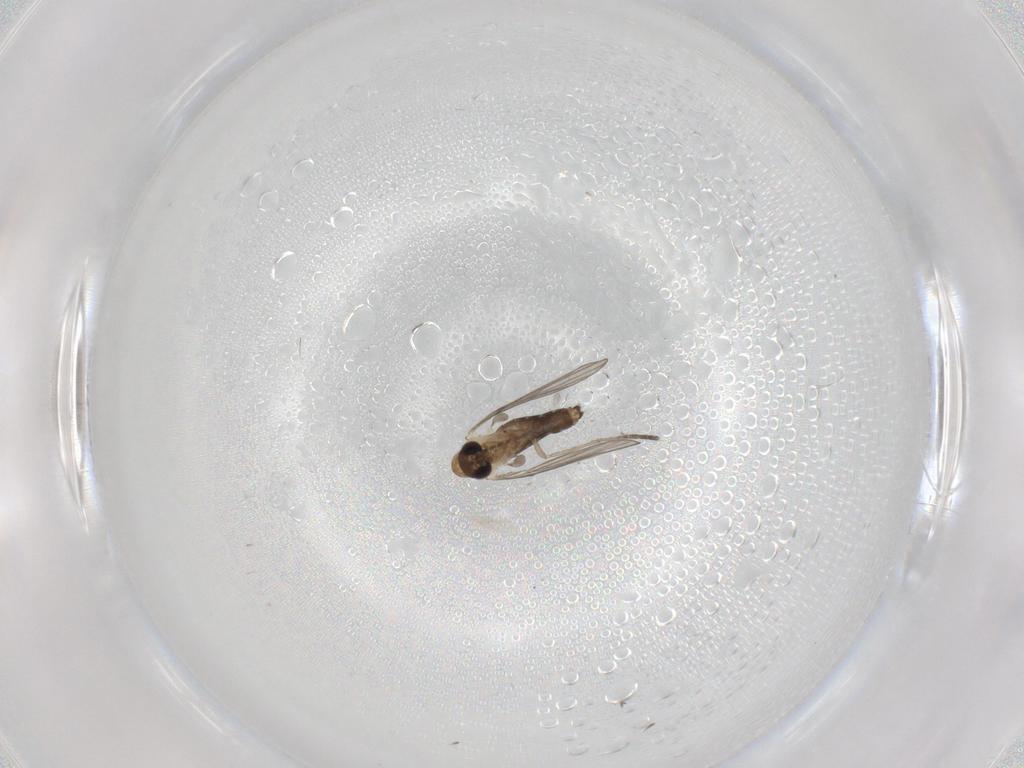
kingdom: Animalia
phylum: Arthropoda
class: Insecta
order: Diptera
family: Psychodidae
